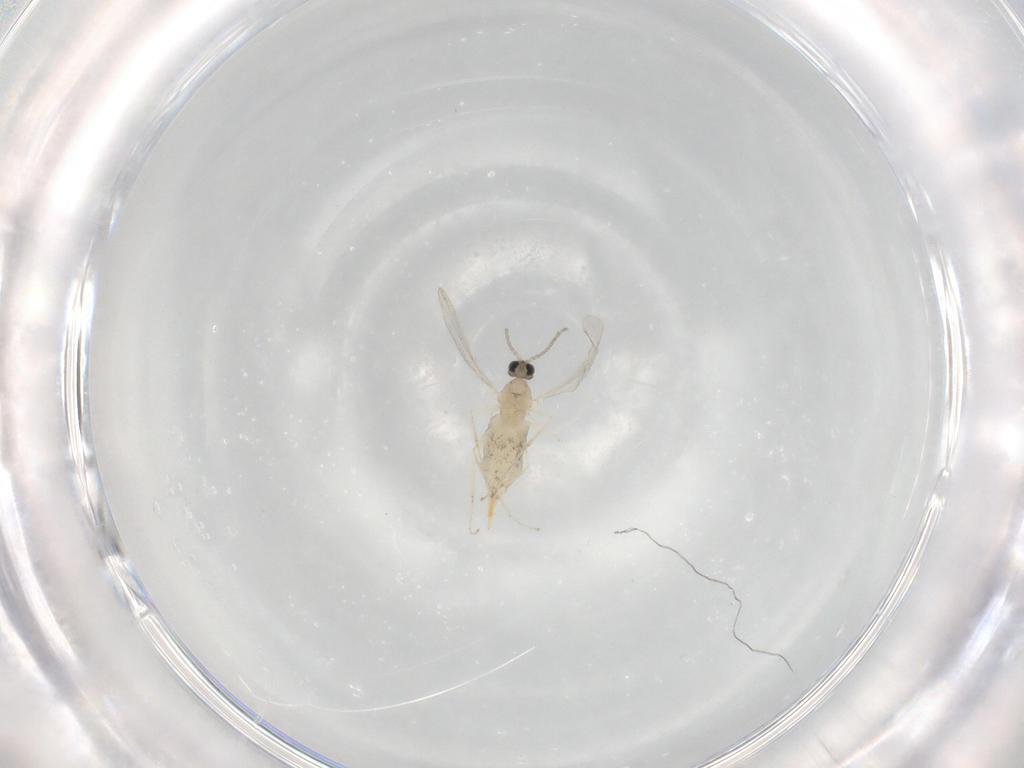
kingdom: Animalia
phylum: Arthropoda
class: Insecta
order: Diptera
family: Cecidomyiidae
